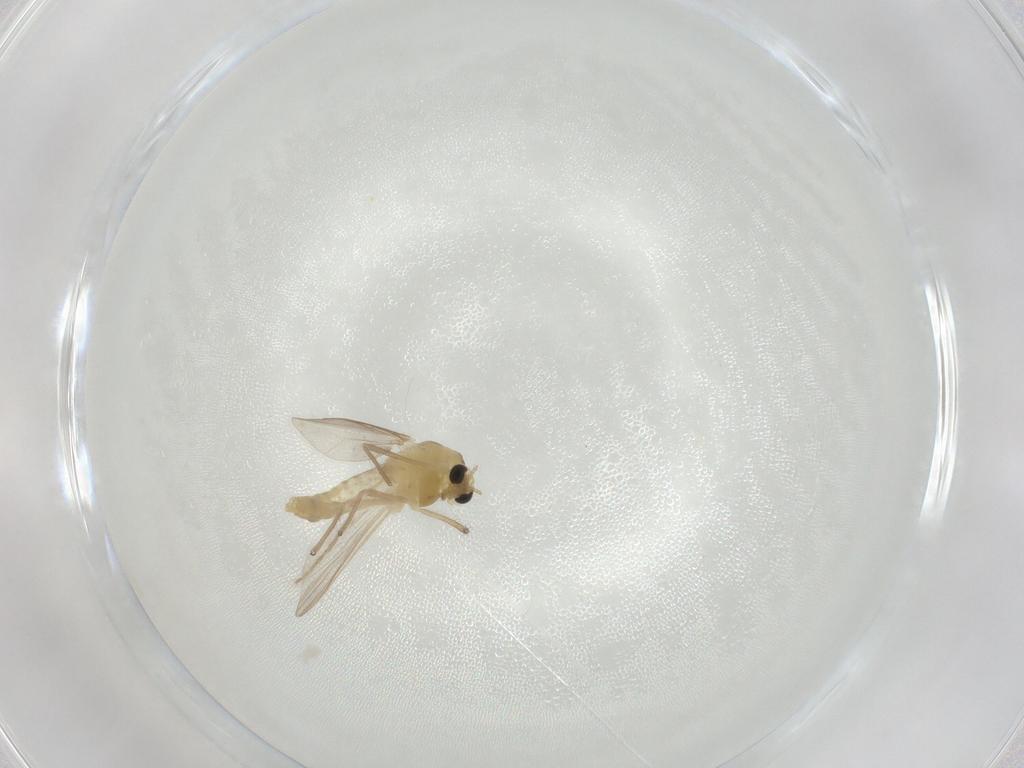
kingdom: Animalia
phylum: Arthropoda
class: Insecta
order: Diptera
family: Chironomidae
